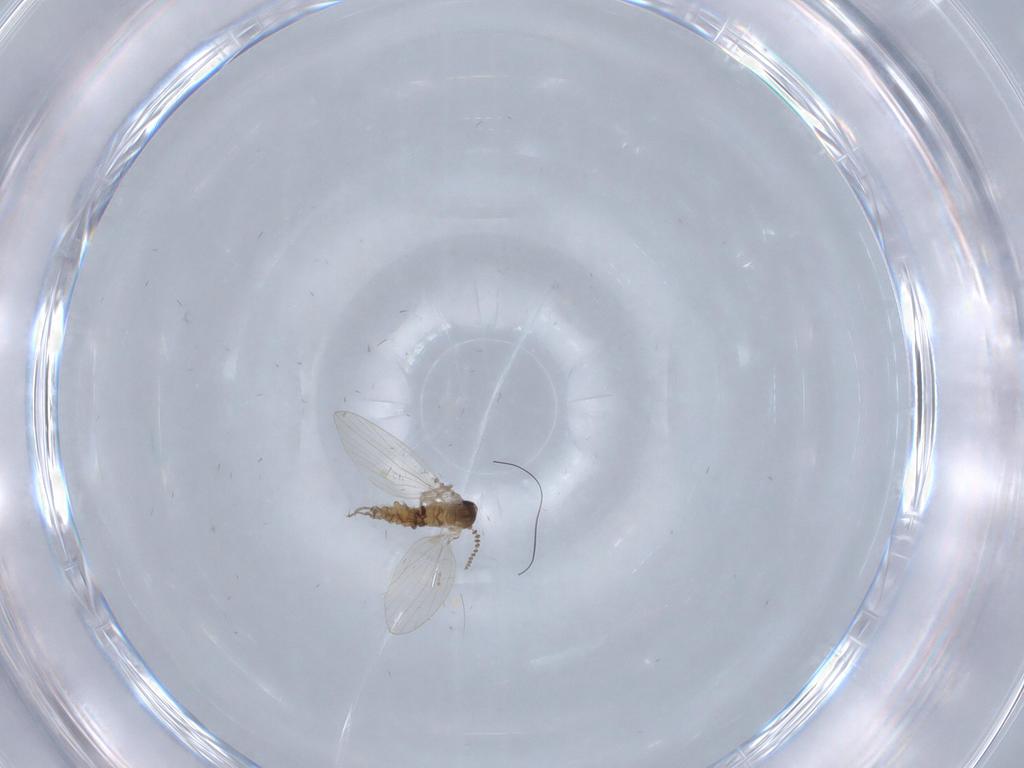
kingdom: Animalia
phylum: Arthropoda
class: Insecta
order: Diptera
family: Psychodidae
